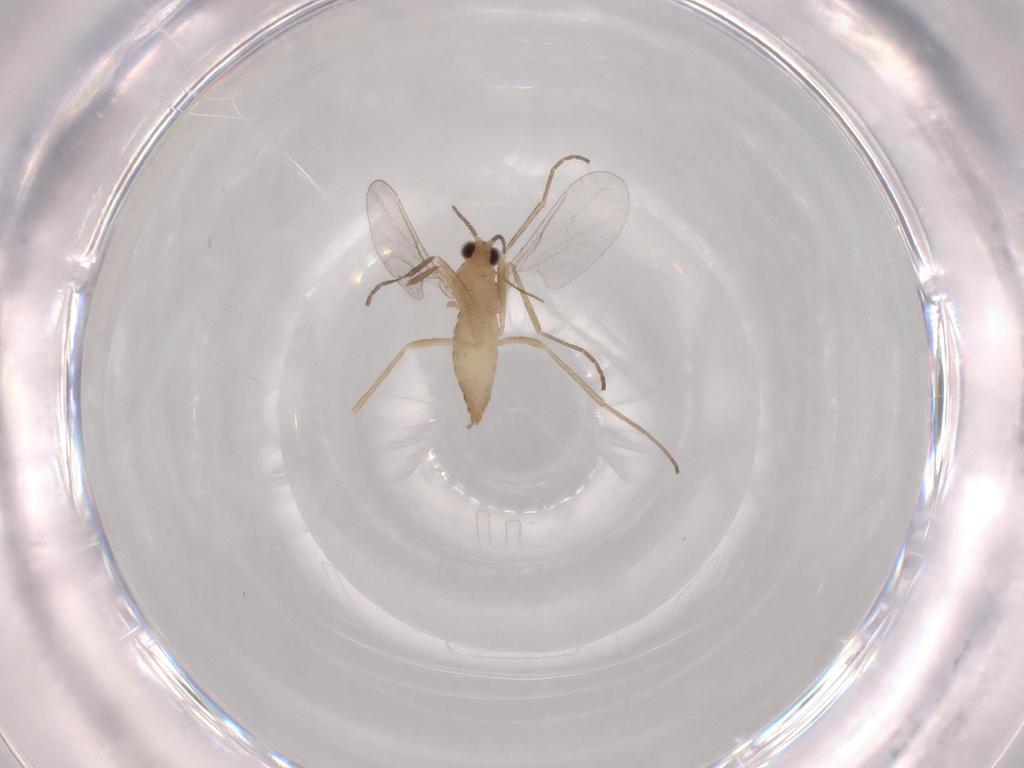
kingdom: Animalia
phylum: Arthropoda
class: Insecta
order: Diptera
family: Cecidomyiidae
